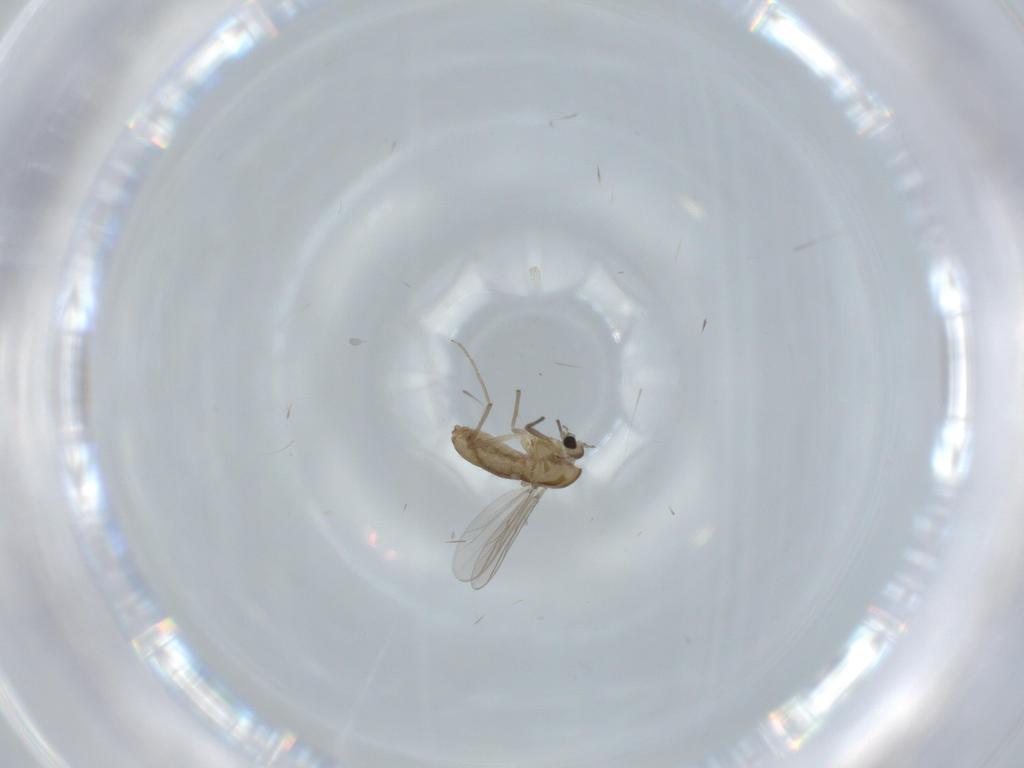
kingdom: Animalia
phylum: Arthropoda
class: Insecta
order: Diptera
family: Chironomidae
